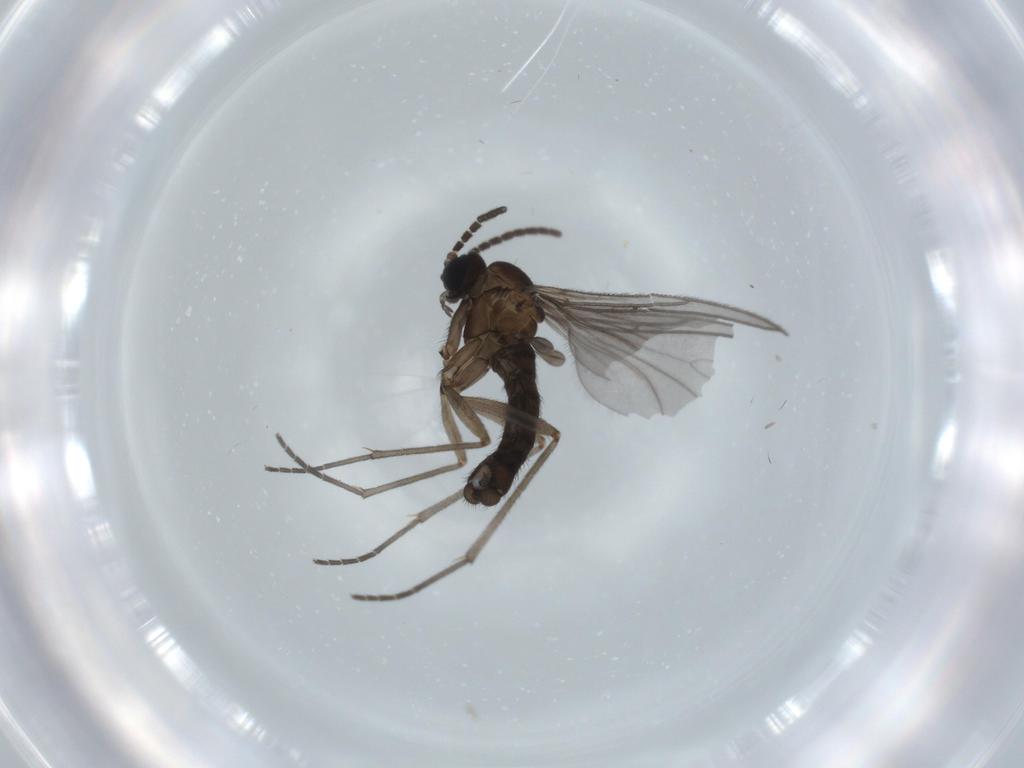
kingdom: Animalia
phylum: Arthropoda
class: Insecta
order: Diptera
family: Sciaridae
